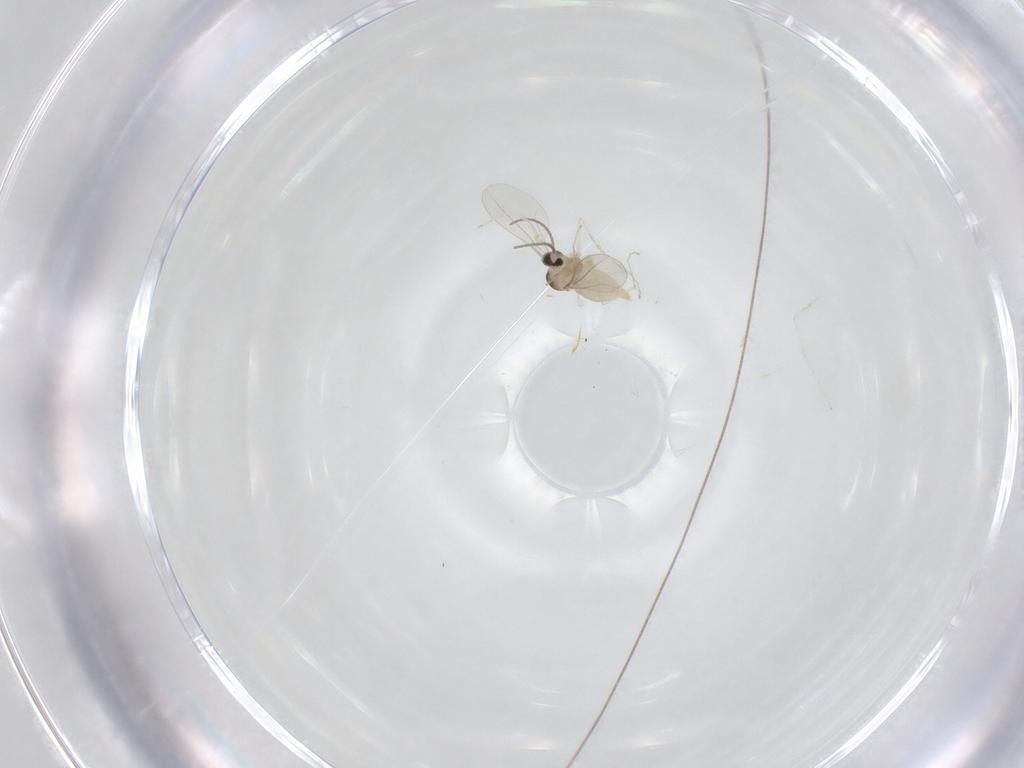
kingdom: Animalia
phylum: Arthropoda
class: Insecta
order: Diptera
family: Cecidomyiidae
